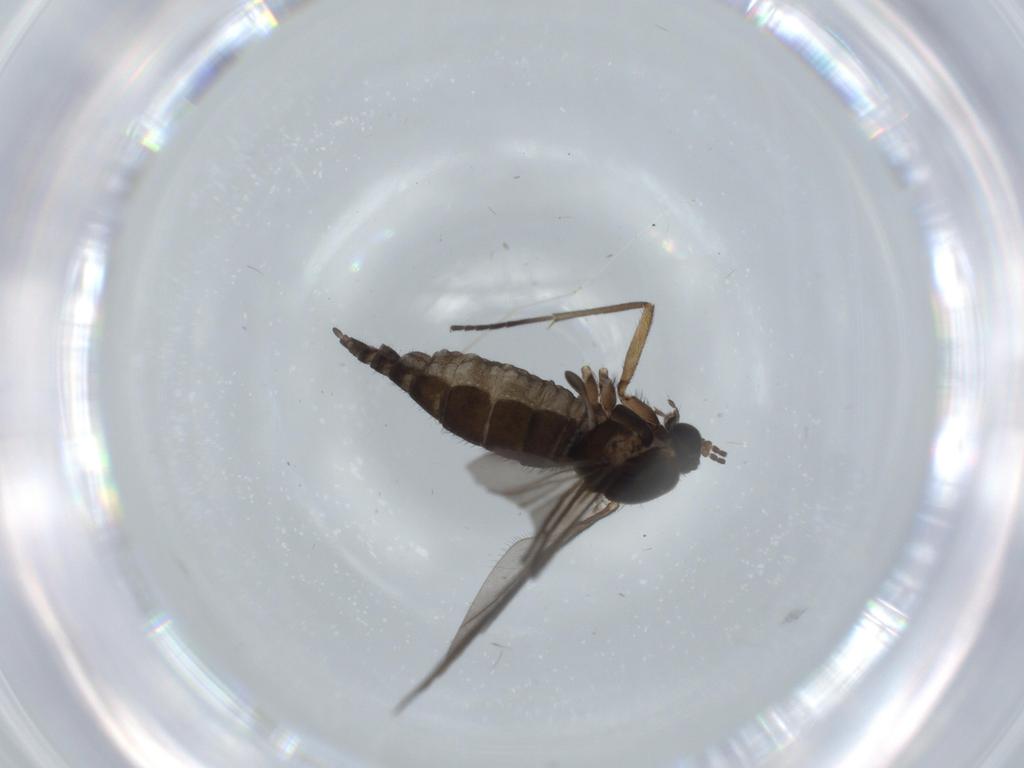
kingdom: Animalia
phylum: Arthropoda
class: Insecta
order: Diptera
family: Sciaridae
